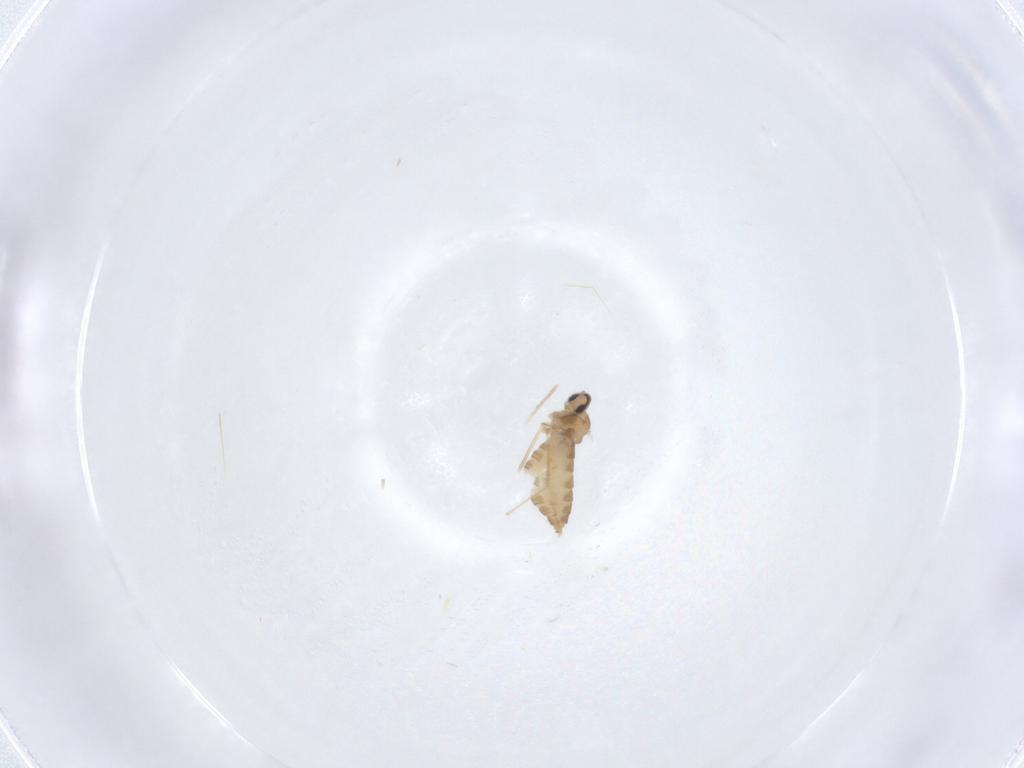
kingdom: Animalia
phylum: Arthropoda
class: Insecta
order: Diptera
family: Cecidomyiidae
